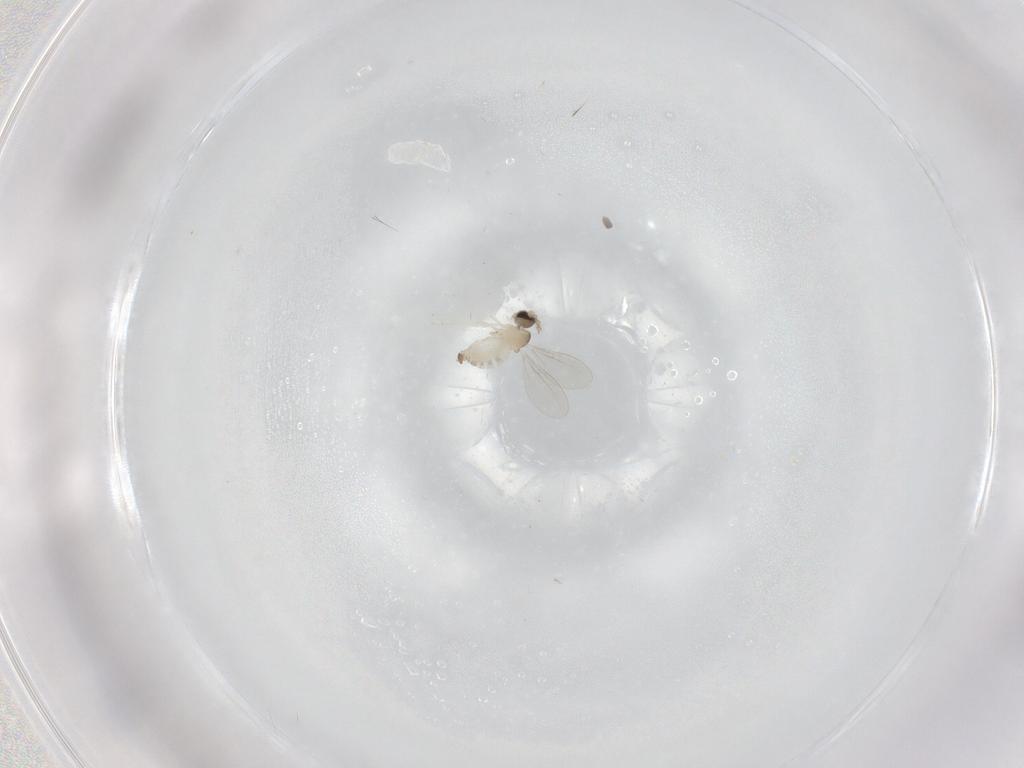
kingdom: Animalia
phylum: Arthropoda
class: Insecta
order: Diptera
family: Cecidomyiidae
